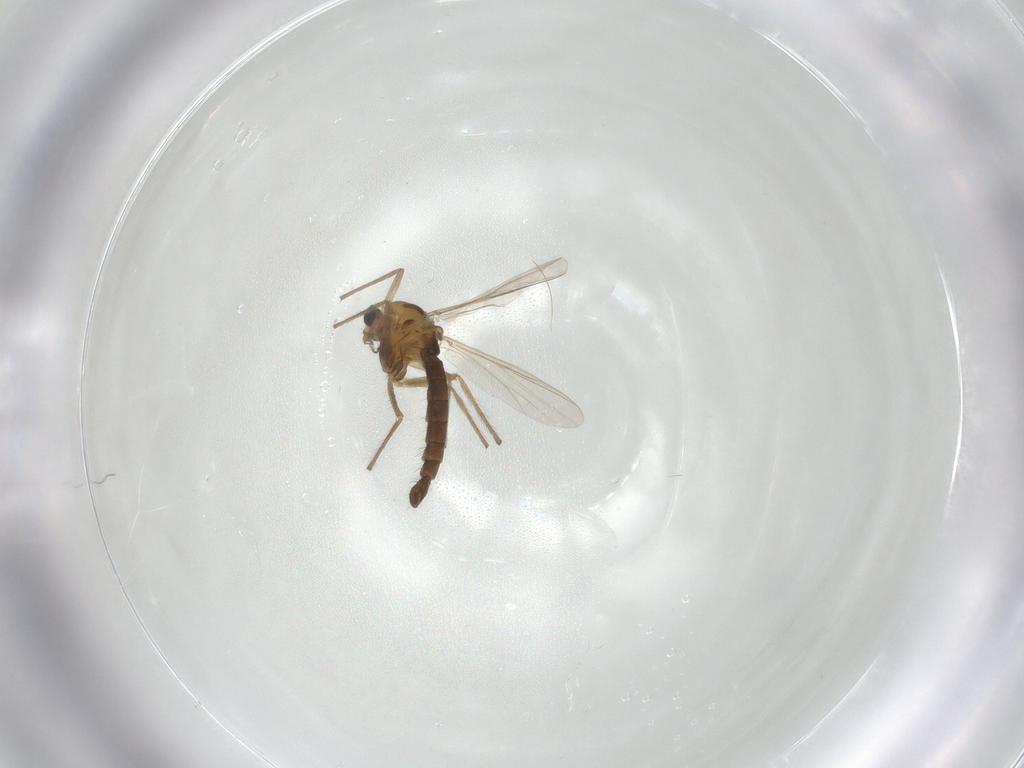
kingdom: Animalia
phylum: Arthropoda
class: Insecta
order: Diptera
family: Chironomidae
